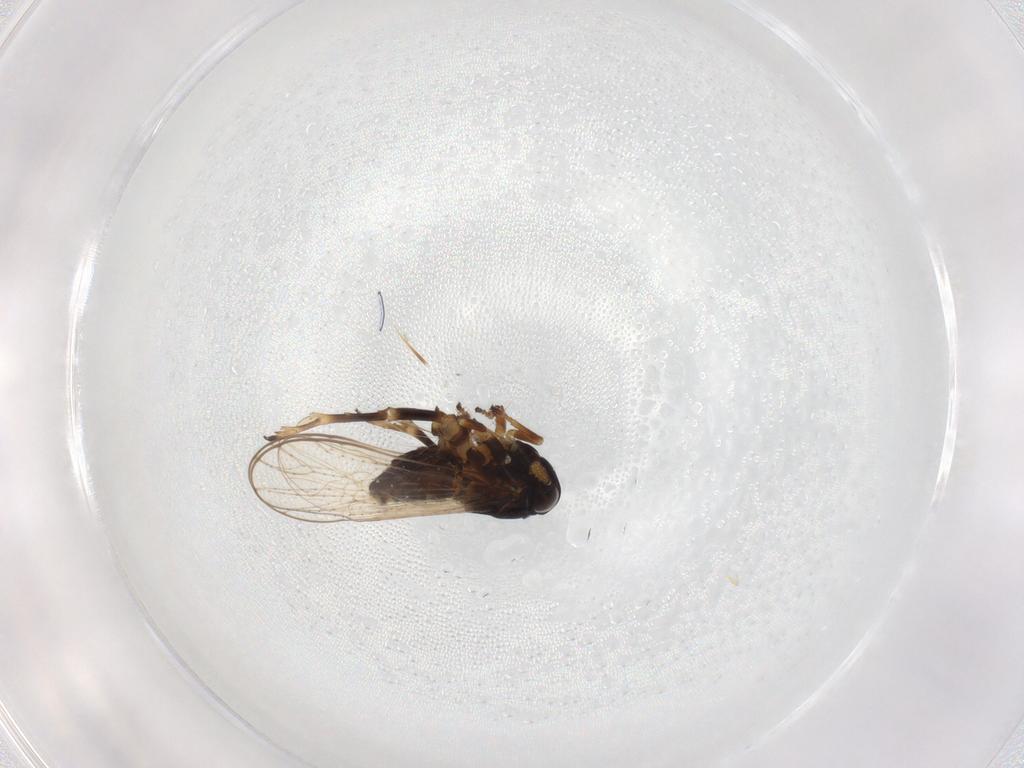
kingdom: Animalia
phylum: Arthropoda
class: Insecta
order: Hemiptera
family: Delphacidae
